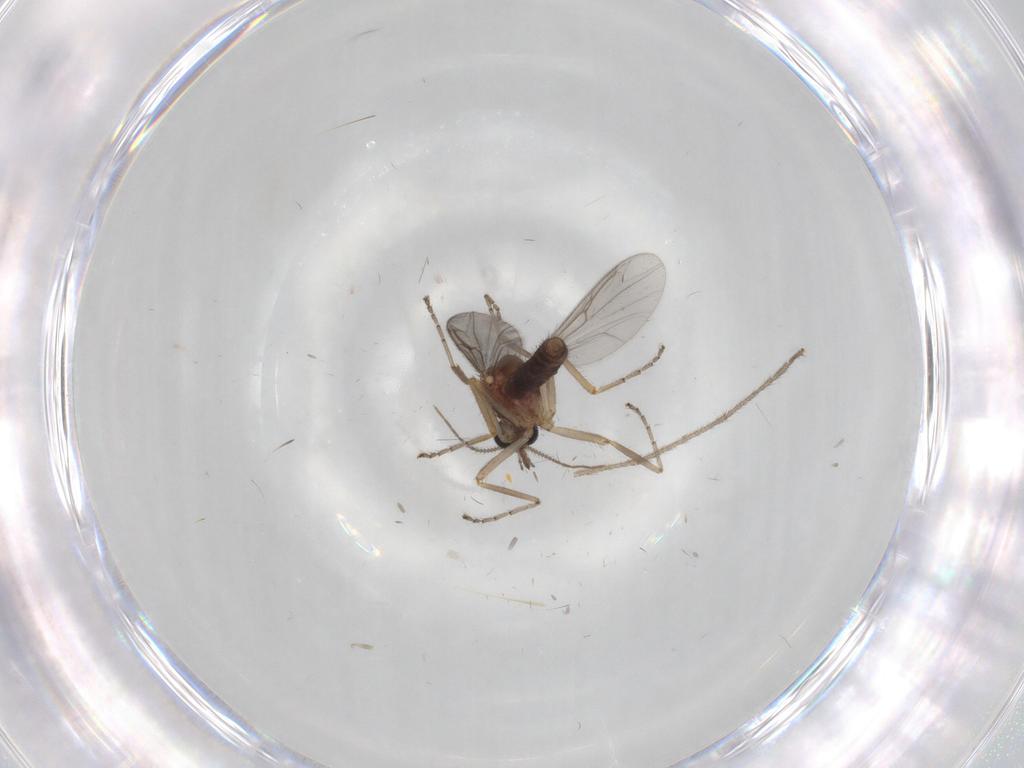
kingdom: Animalia
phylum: Arthropoda
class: Insecta
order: Diptera
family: Ceratopogonidae
